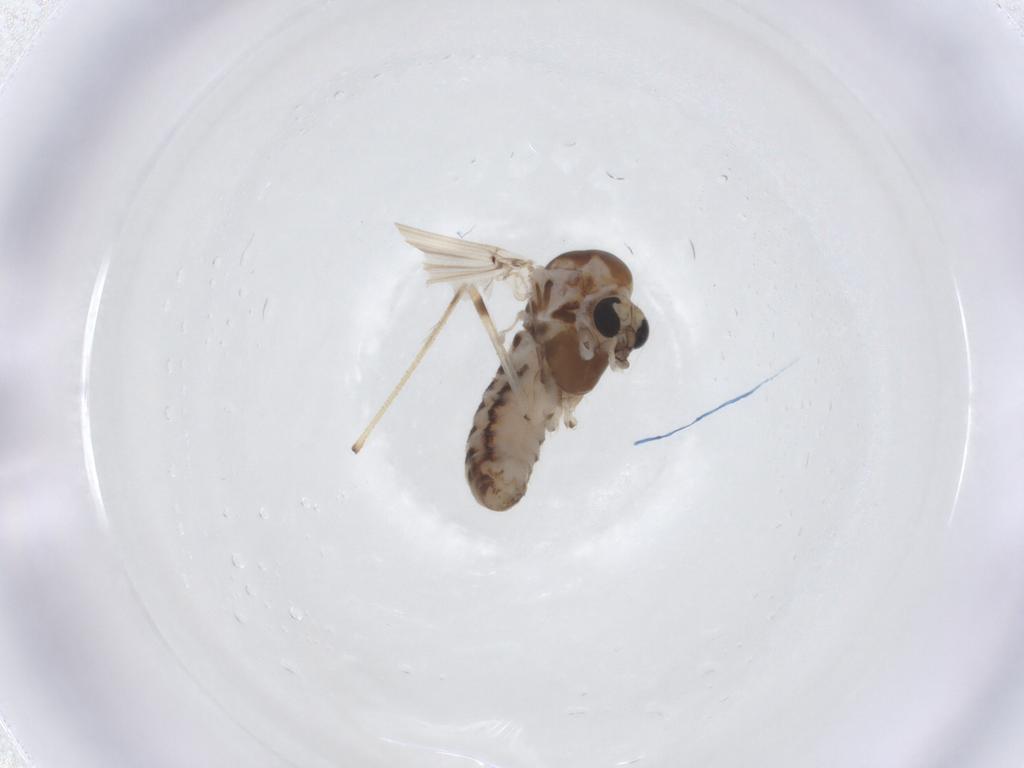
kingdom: Animalia
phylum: Arthropoda
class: Insecta
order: Diptera
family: Chironomidae
